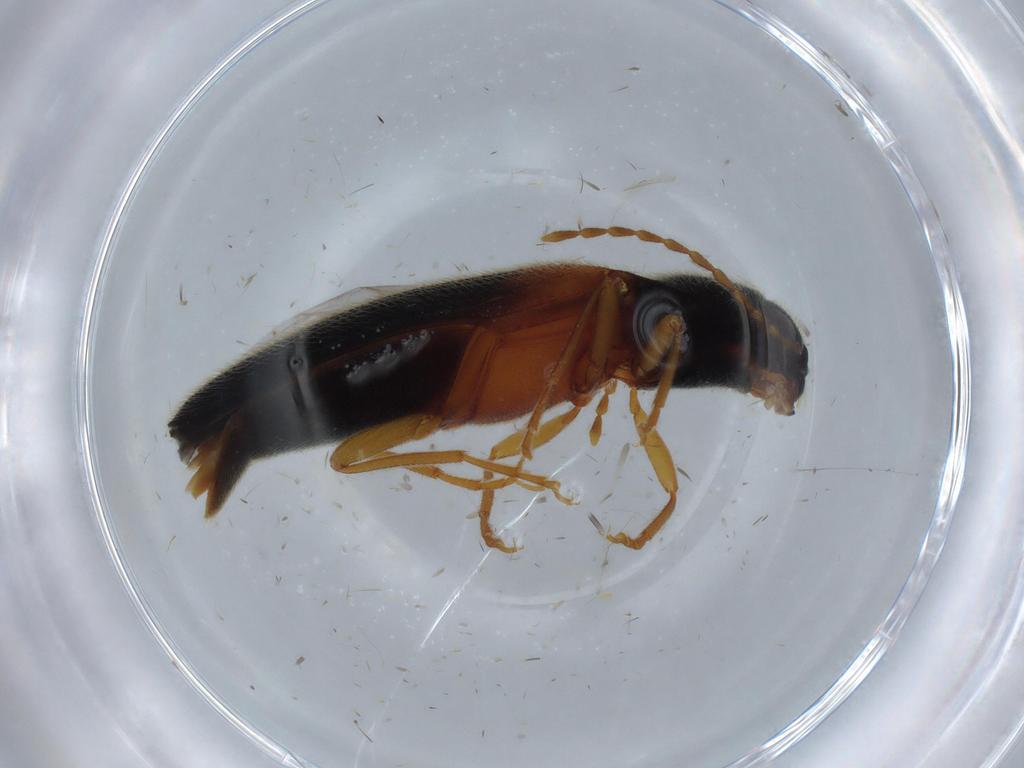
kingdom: Animalia
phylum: Arthropoda
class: Insecta
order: Coleoptera
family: Elateridae
